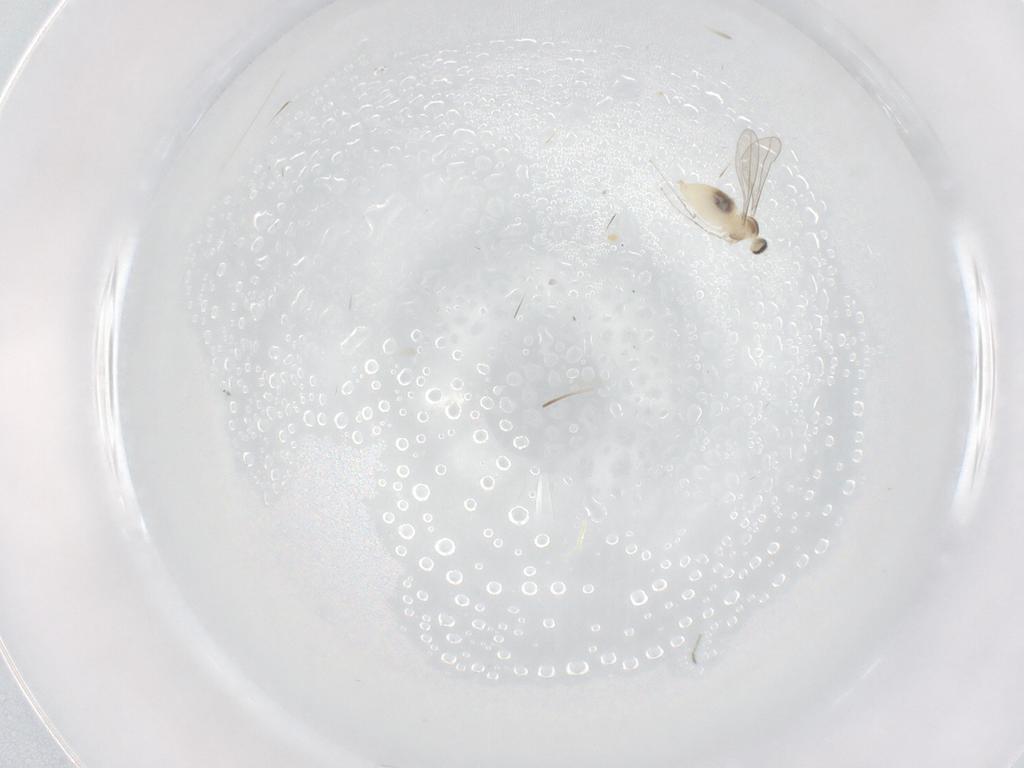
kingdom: Animalia
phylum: Arthropoda
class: Insecta
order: Diptera
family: Cecidomyiidae
